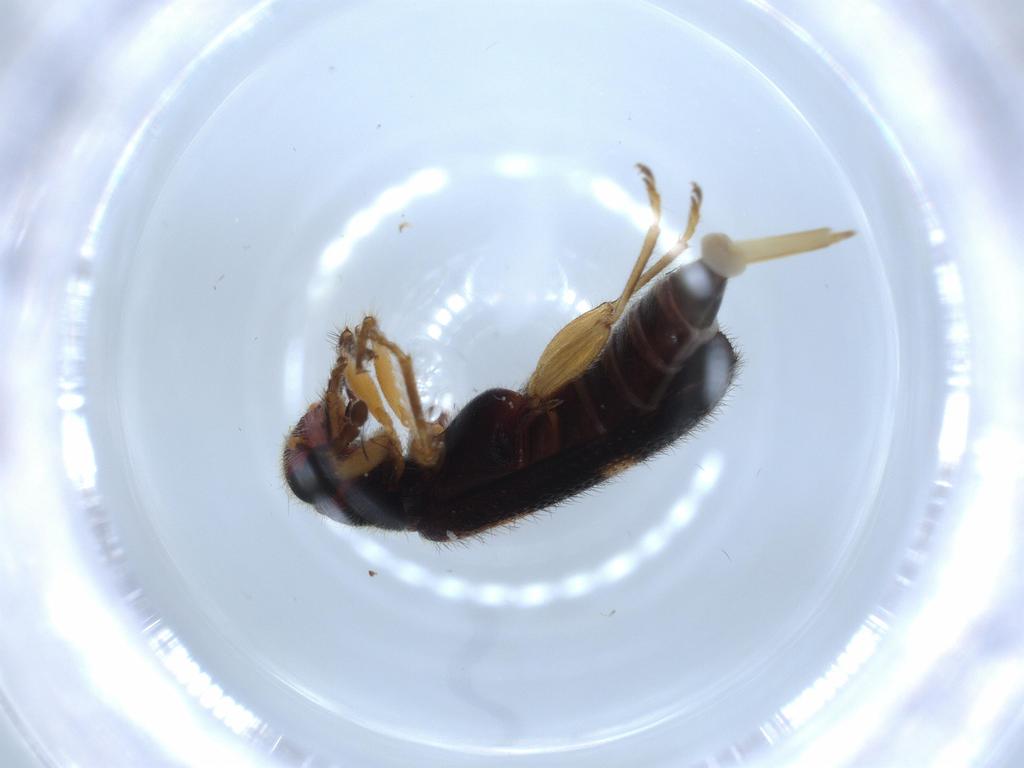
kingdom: Animalia
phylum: Arthropoda
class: Insecta
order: Coleoptera
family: Cleridae
